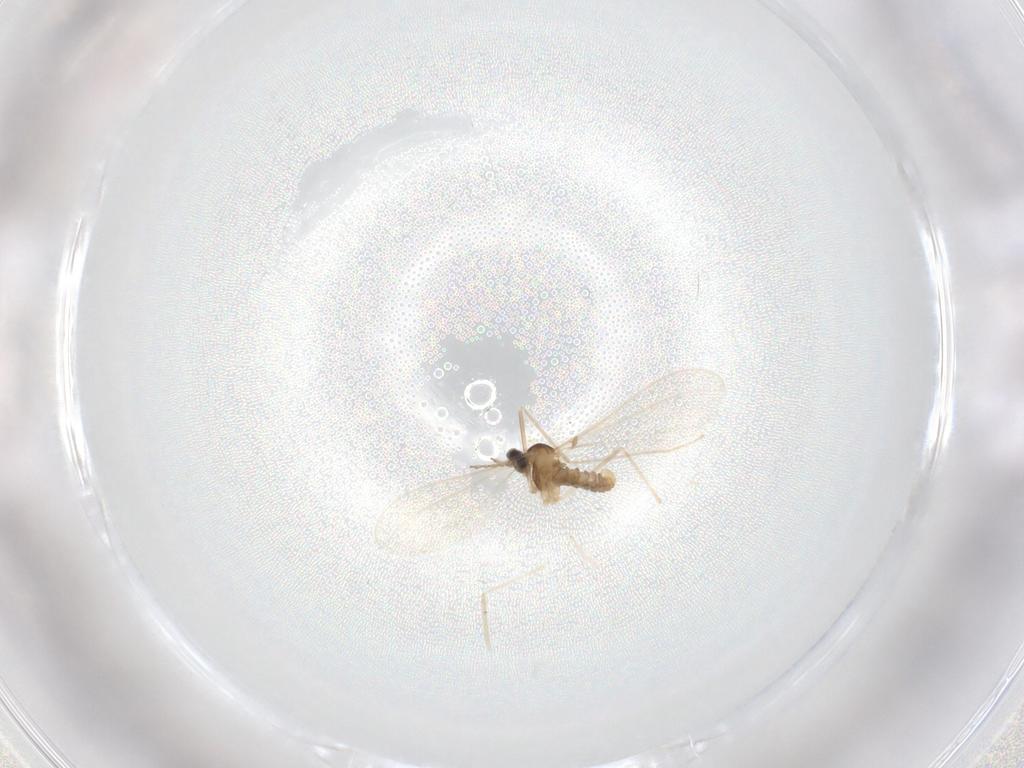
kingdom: Animalia
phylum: Arthropoda
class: Insecta
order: Diptera
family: Cecidomyiidae
